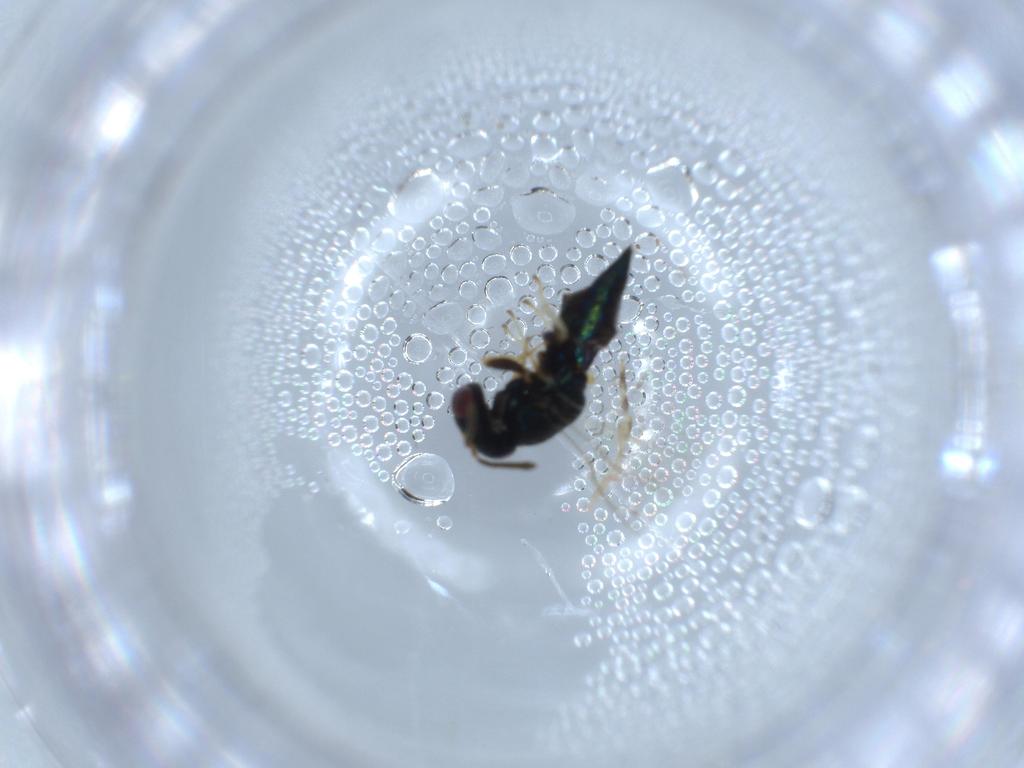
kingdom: Animalia
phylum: Arthropoda
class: Insecta
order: Hymenoptera
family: Pteromalidae
